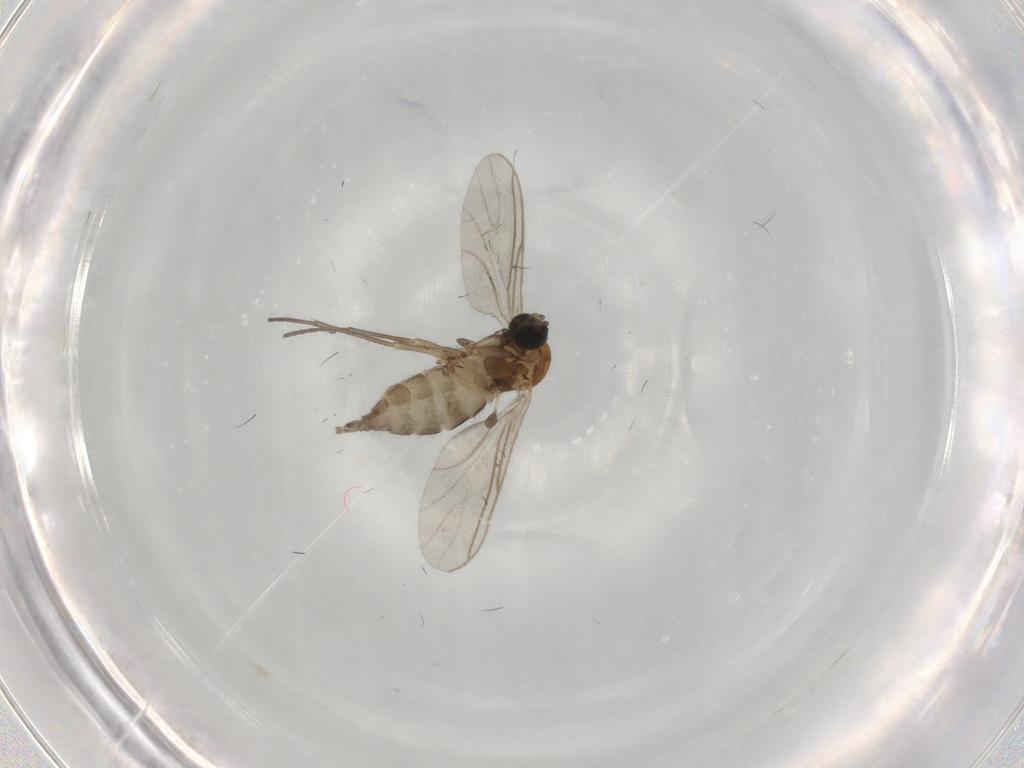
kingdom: Animalia
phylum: Arthropoda
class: Insecta
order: Diptera
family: Sciaridae
